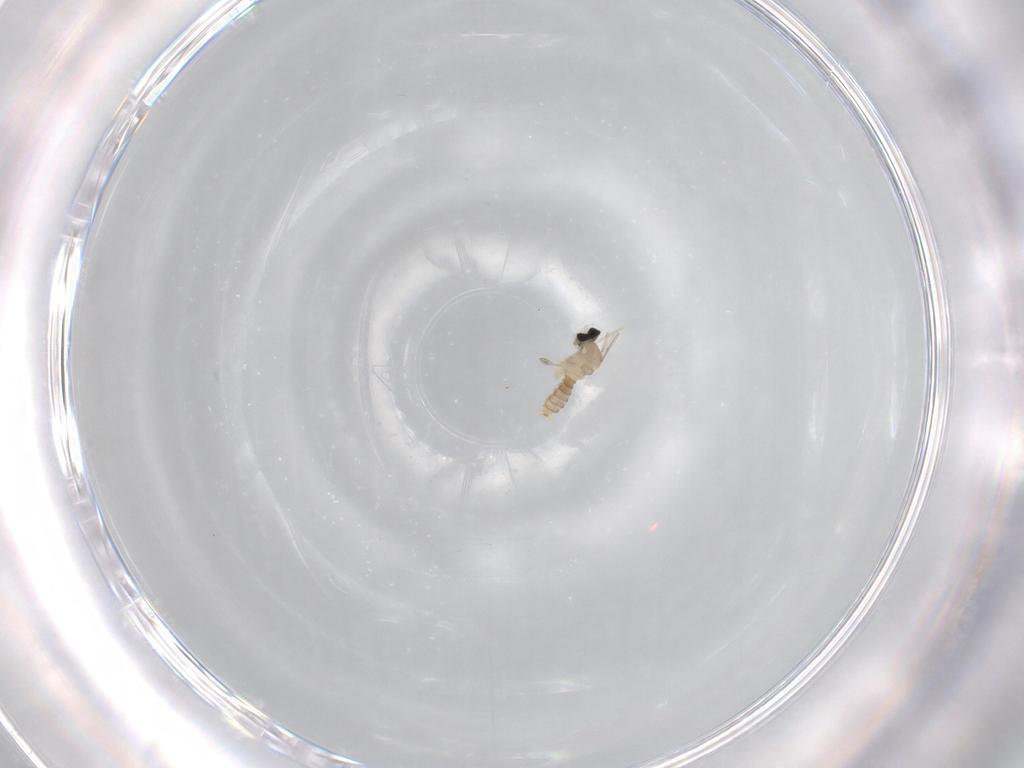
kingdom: Animalia
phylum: Arthropoda
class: Insecta
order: Diptera
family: Cecidomyiidae
